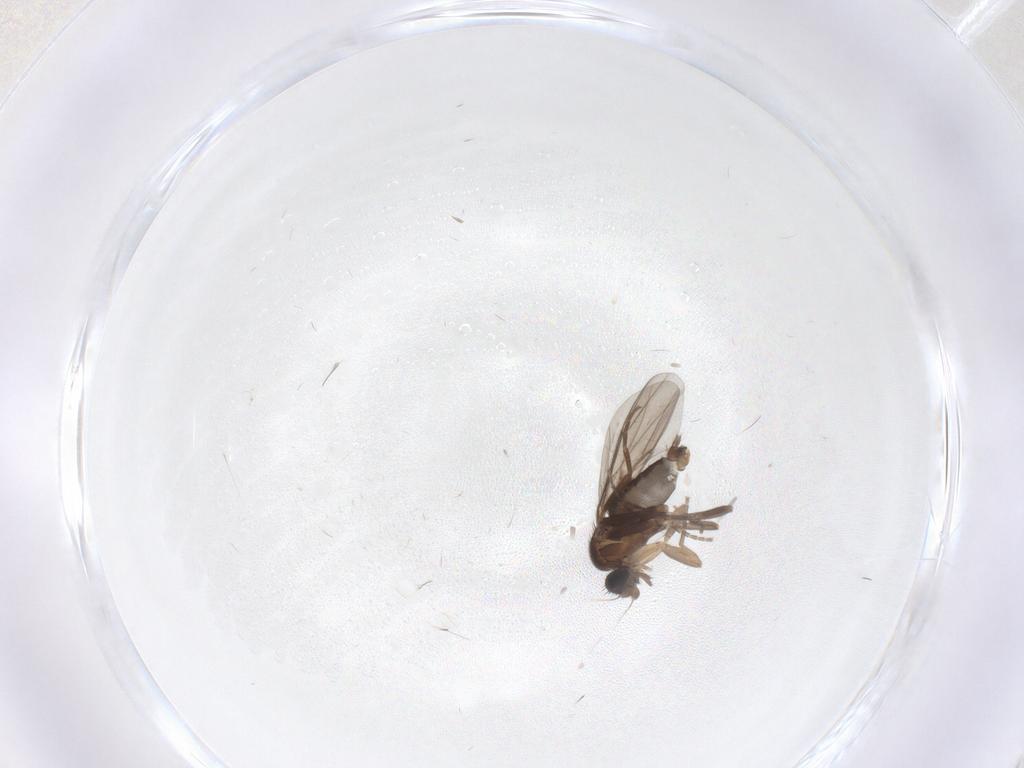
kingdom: Animalia
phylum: Arthropoda
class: Insecta
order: Diptera
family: Phoridae
